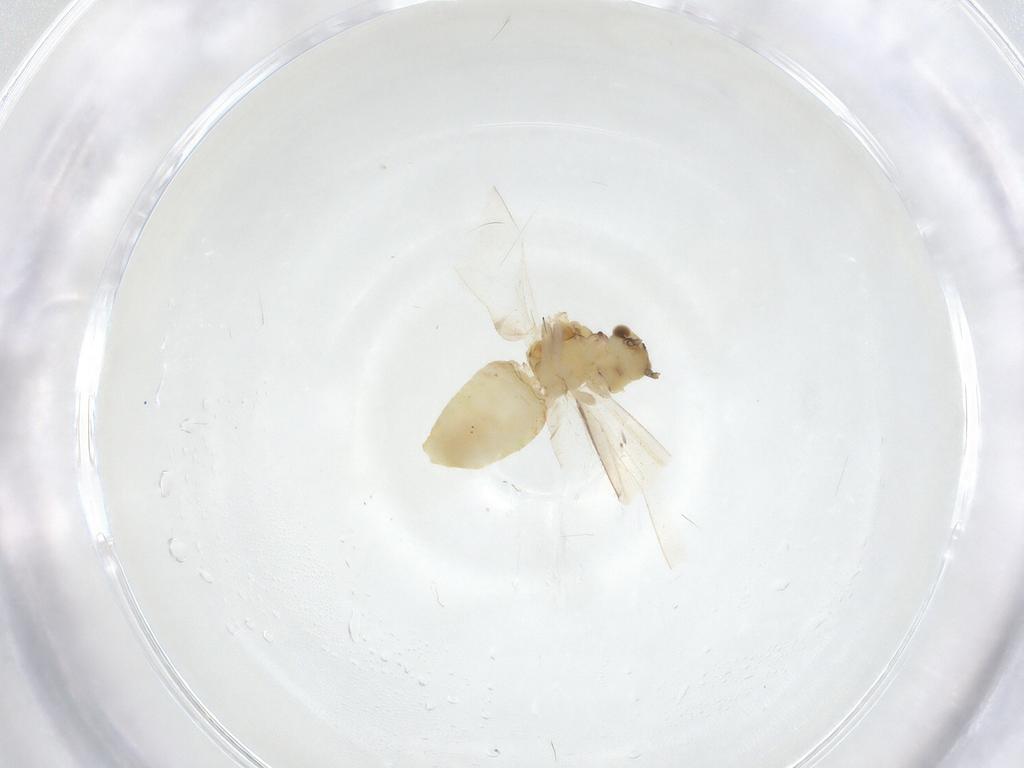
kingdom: Animalia
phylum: Arthropoda
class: Insecta
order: Psocodea
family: Caeciliusidae
